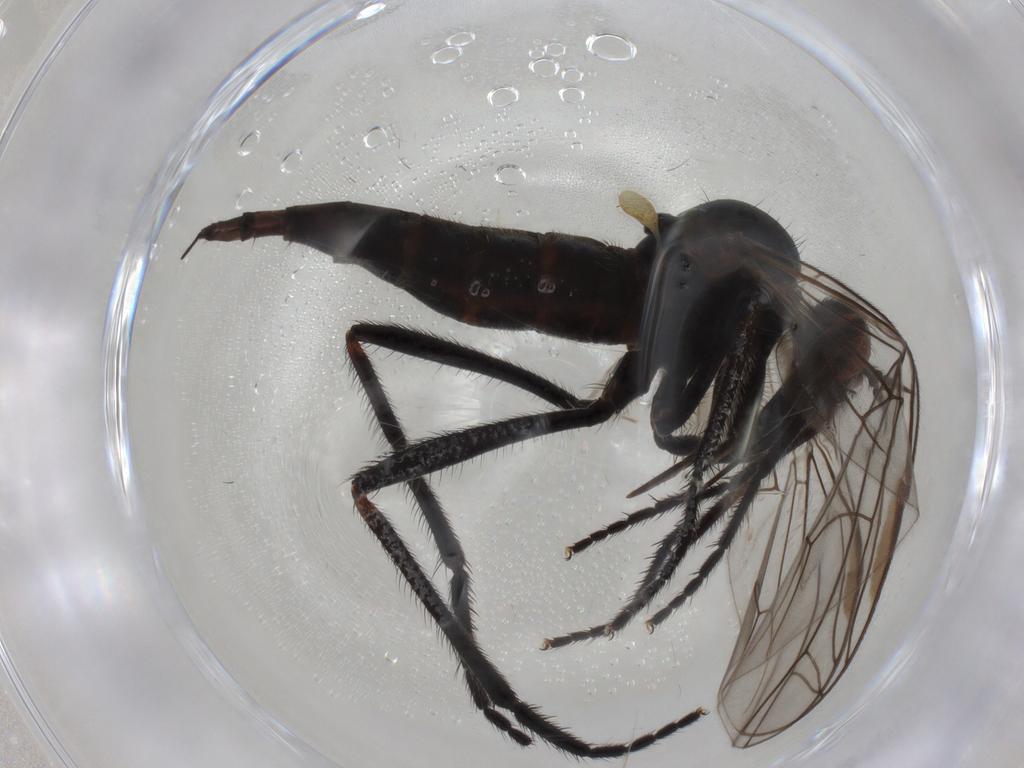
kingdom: Animalia
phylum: Arthropoda
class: Insecta
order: Diptera
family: Empididae
